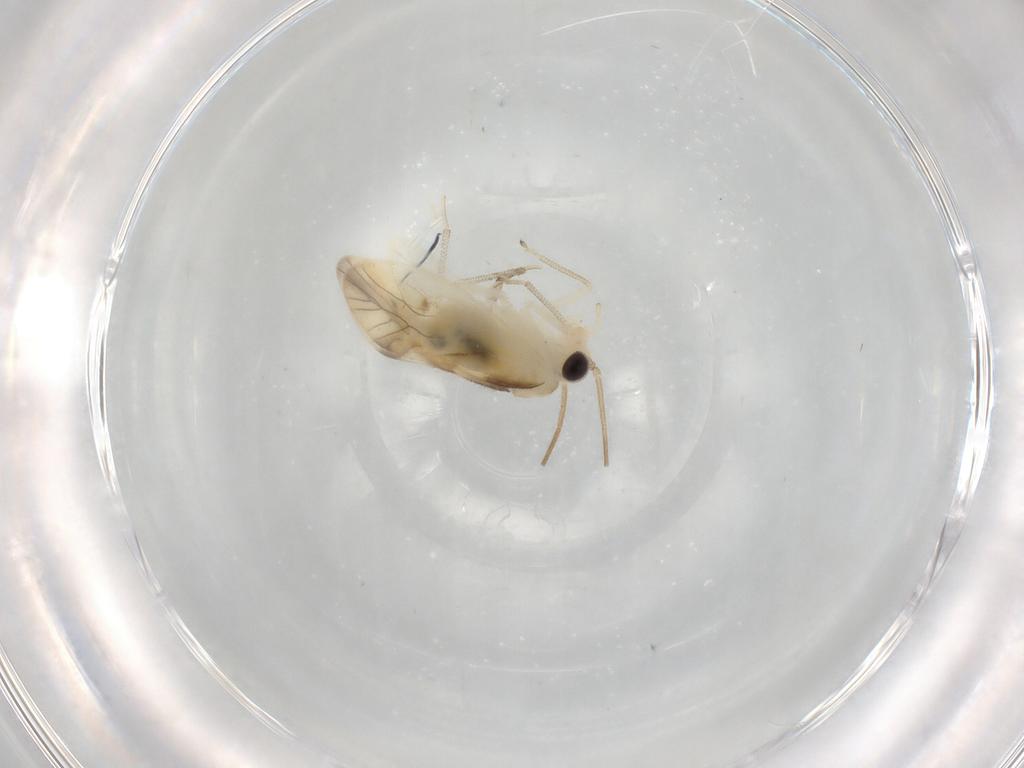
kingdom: Animalia
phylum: Arthropoda
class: Insecta
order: Psocodea
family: Caeciliusidae
